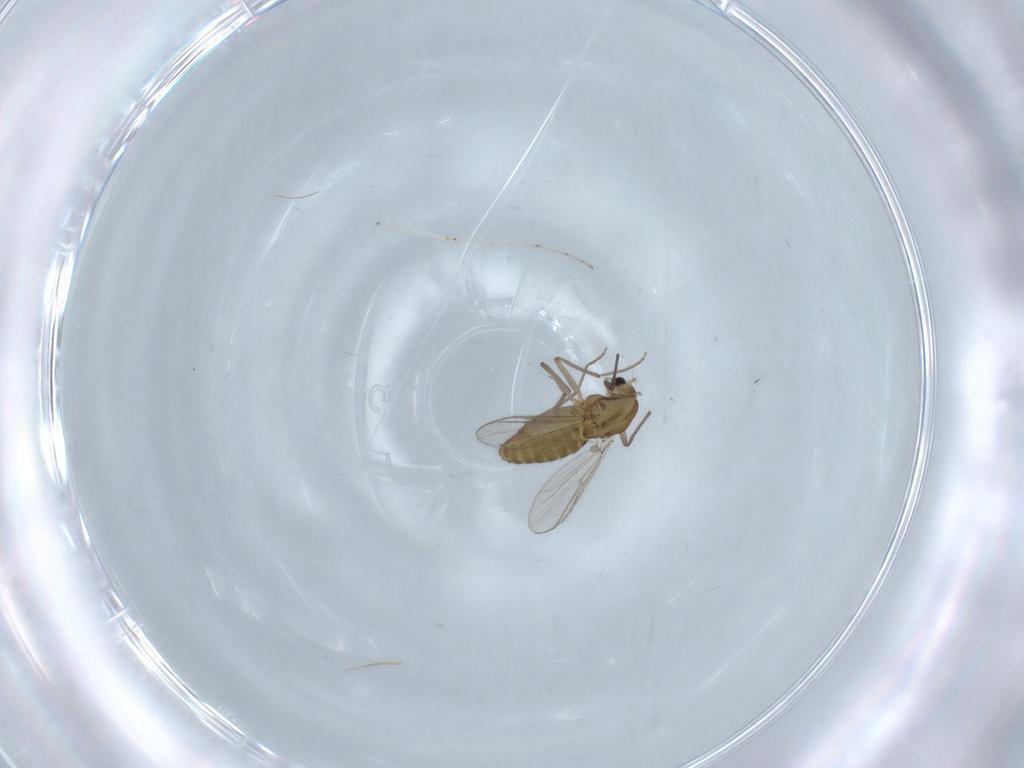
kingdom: Animalia
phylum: Arthropoda
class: Insecta
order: Diptera
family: Chironomidae
